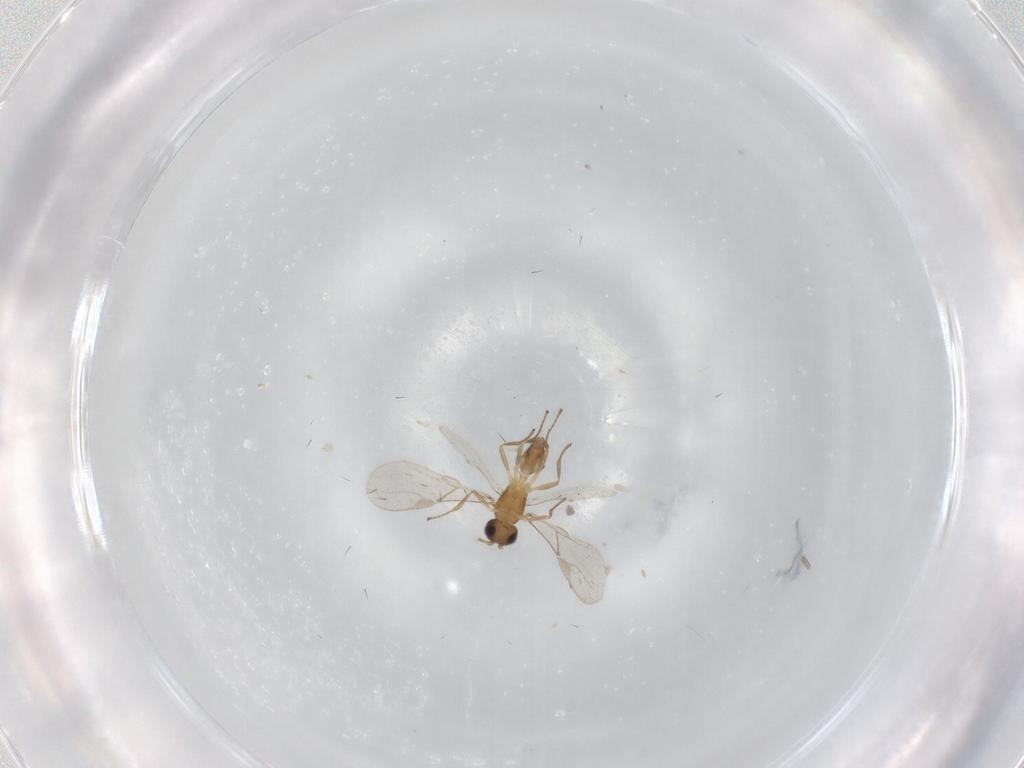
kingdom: Animalia
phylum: Arthropoda
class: Insecta
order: Hymenoptera
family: Braconidae
